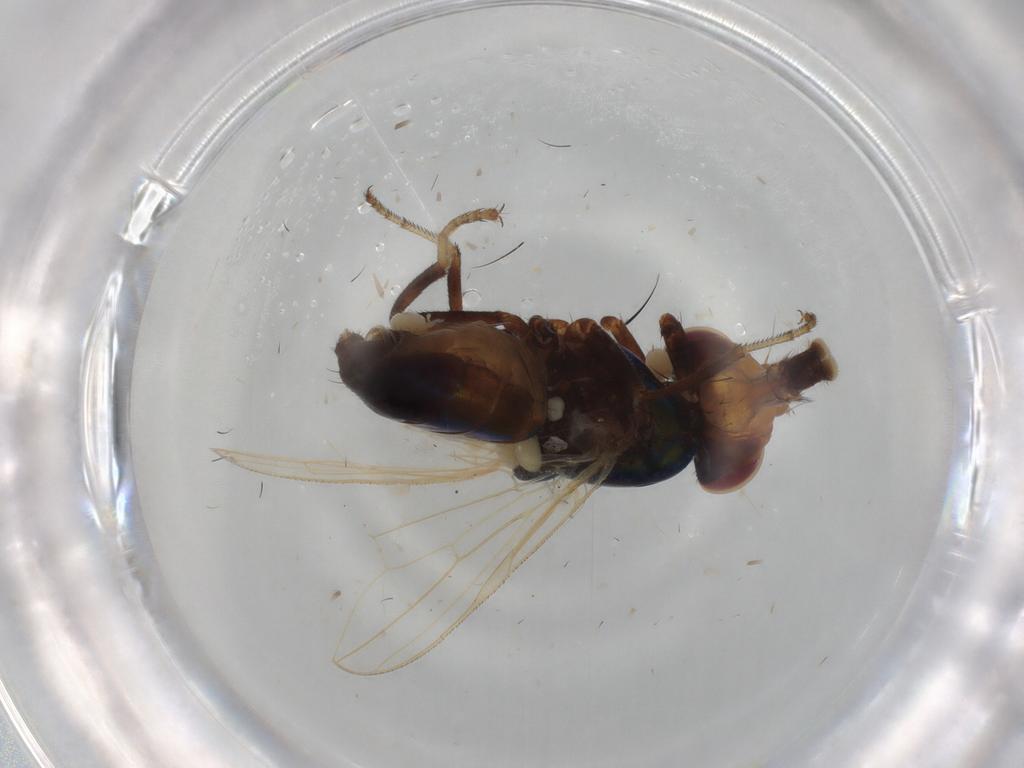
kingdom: Animalia
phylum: Arthropoda
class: Insecta
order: Diptera
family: Dolichopodidae
